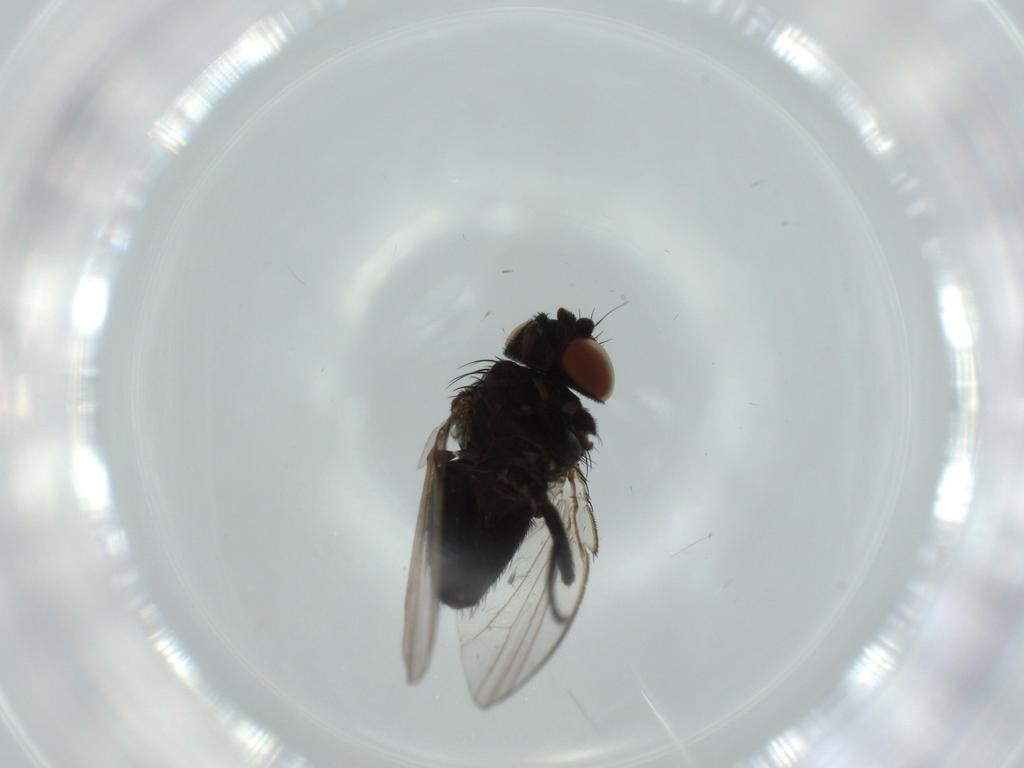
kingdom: Animalia
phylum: Arthropoda
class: Insecta
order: Diptera
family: Milichiidae
